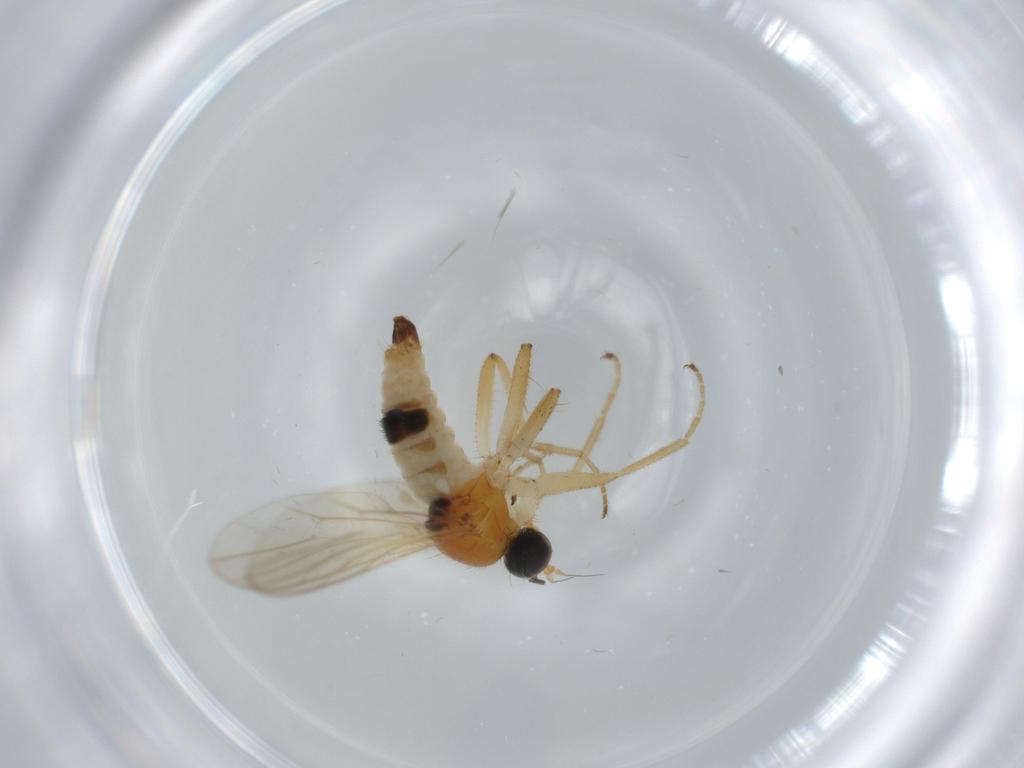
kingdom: Animalia
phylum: Arthropoda
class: Insecta
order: Diptera
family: Hybotidae
